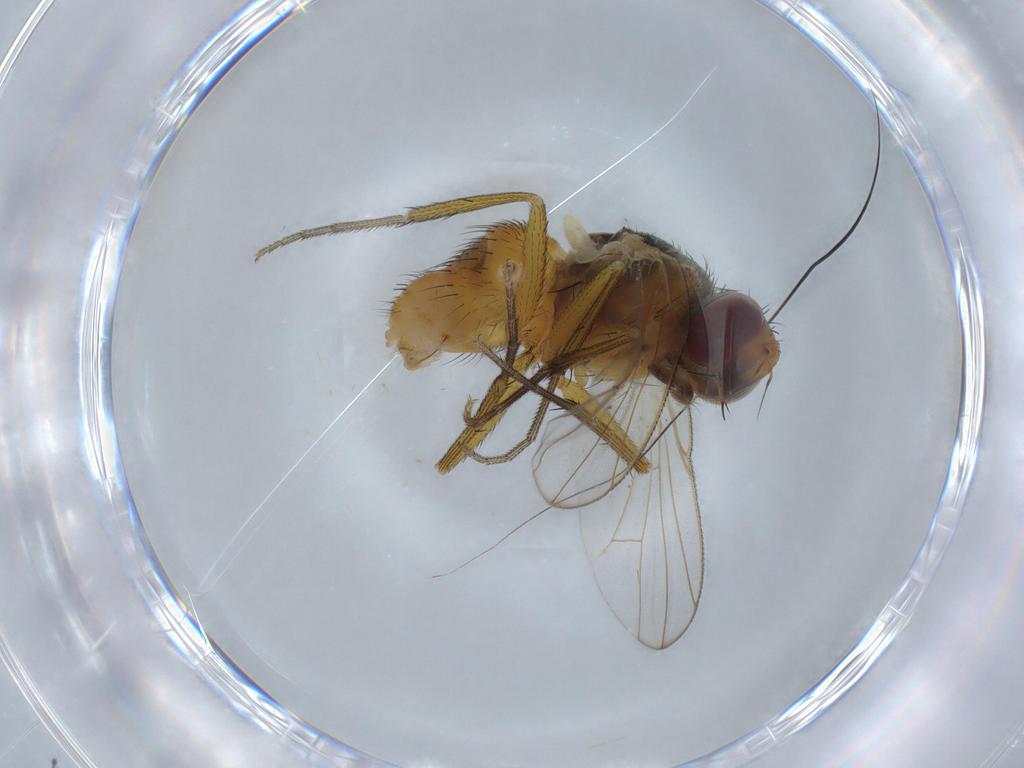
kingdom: Animalia
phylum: Arthropoda
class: Insecta
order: Diptera
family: Muscidae
